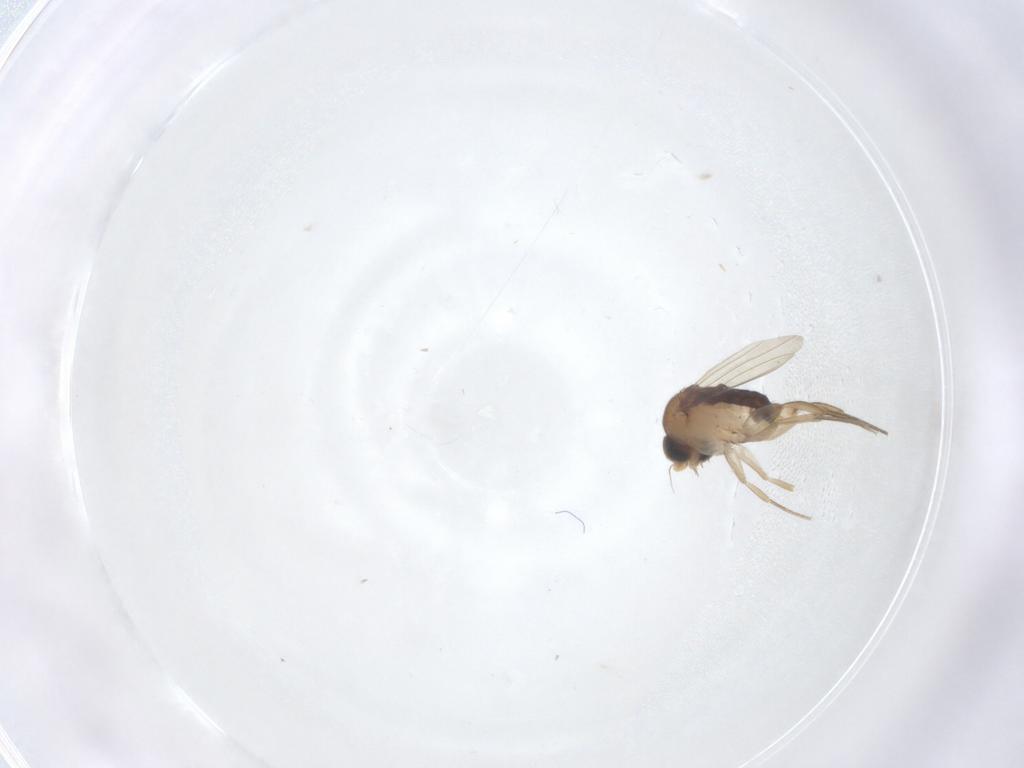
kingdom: Animalia
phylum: Arthropoda
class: Insecta
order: Diptera
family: Phoridae
